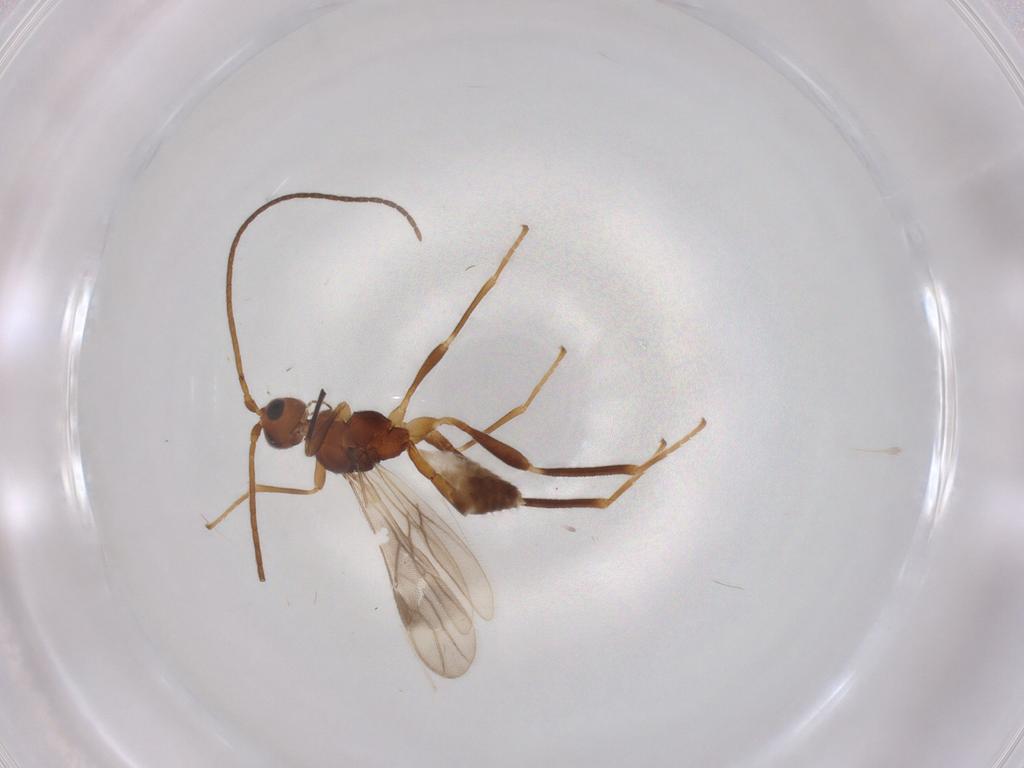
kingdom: Animalia
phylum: Arthropoda
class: Insecta
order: Hymenoptera
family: Braconidae
